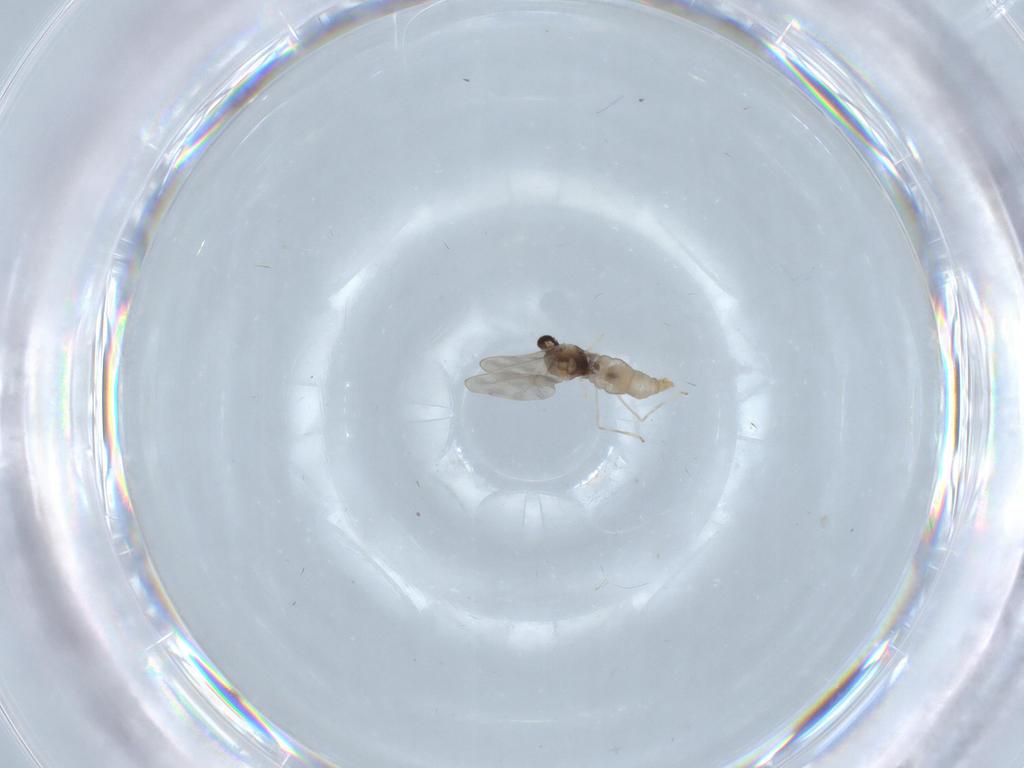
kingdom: Animalia
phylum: Arthropoda
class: Insecta
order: Diptera
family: Cecidomyiidae
